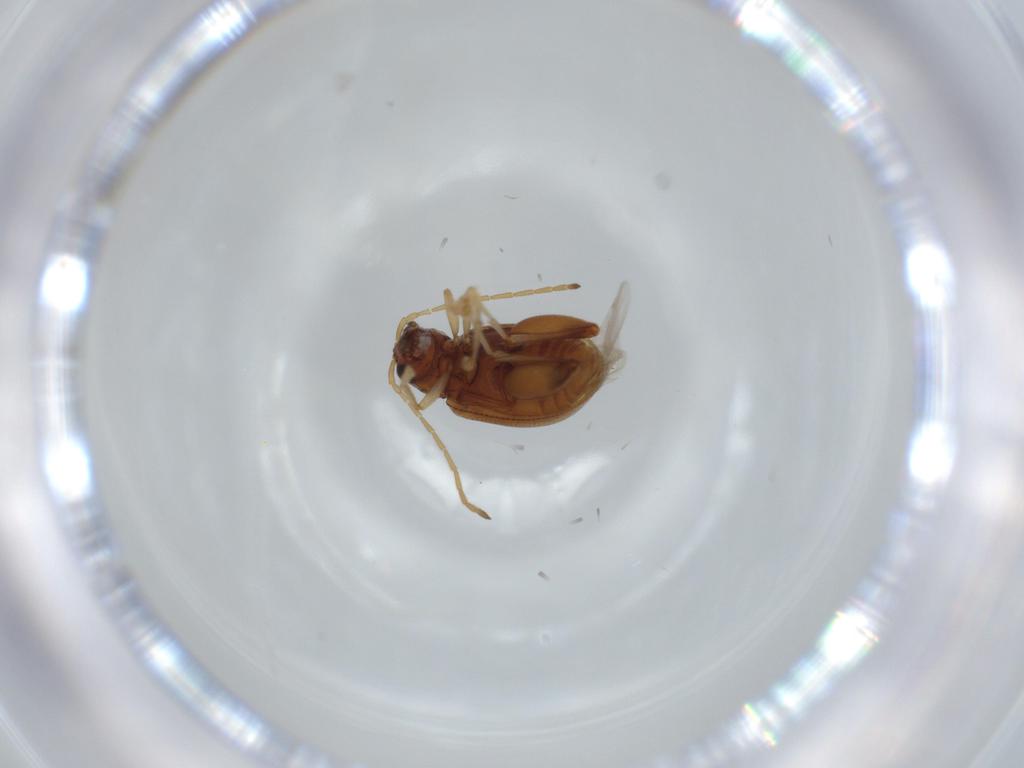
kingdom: Animalia
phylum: Arthropoda
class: Insecta
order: Coleoptera
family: Chrysomelidae
